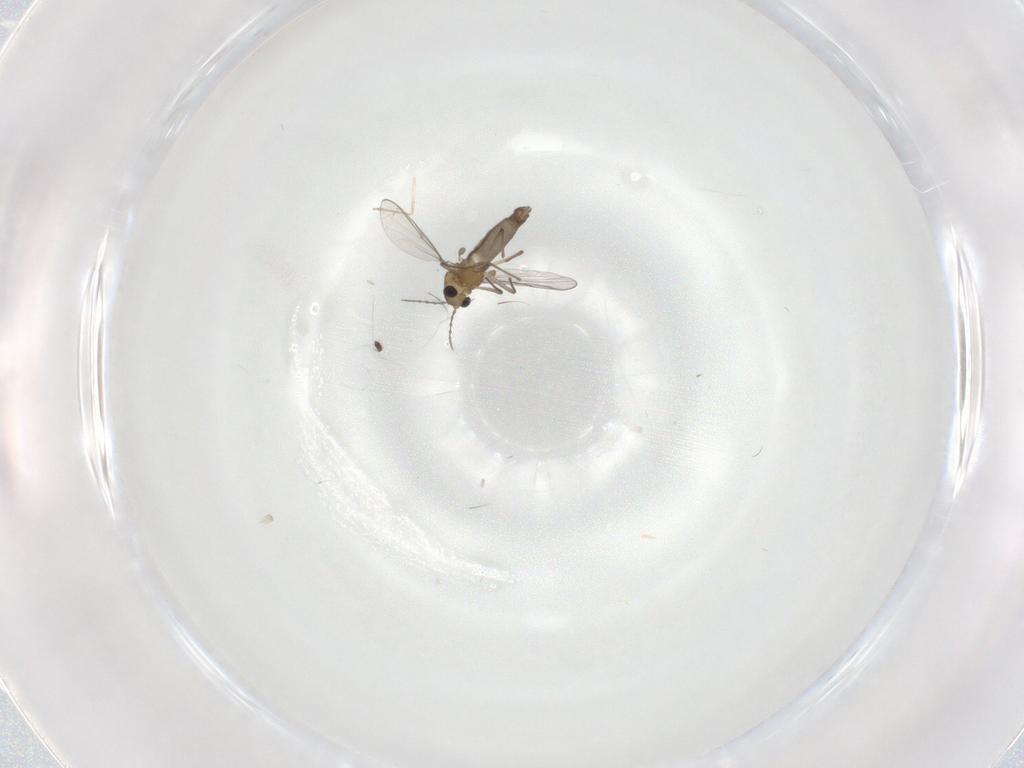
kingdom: Animalia
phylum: Arthropoda
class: Insecta
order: Diptera
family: Chironomidae
